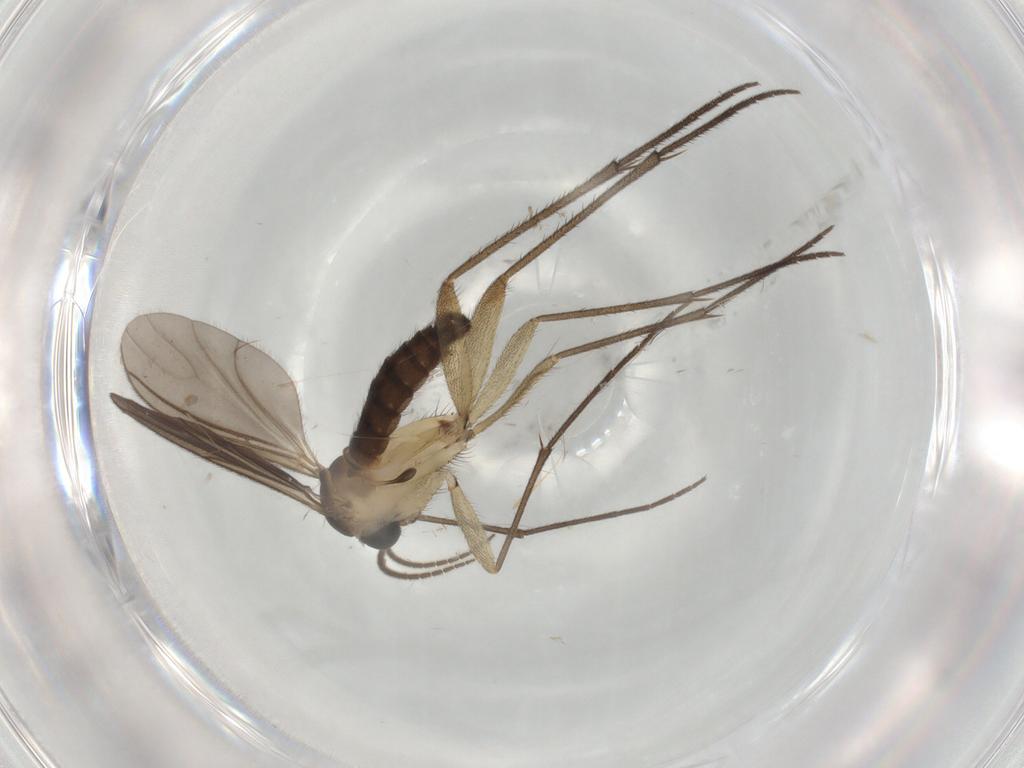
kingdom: Animalia
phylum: Arthropoda
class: Insecta
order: Diptera
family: Sciaridae
